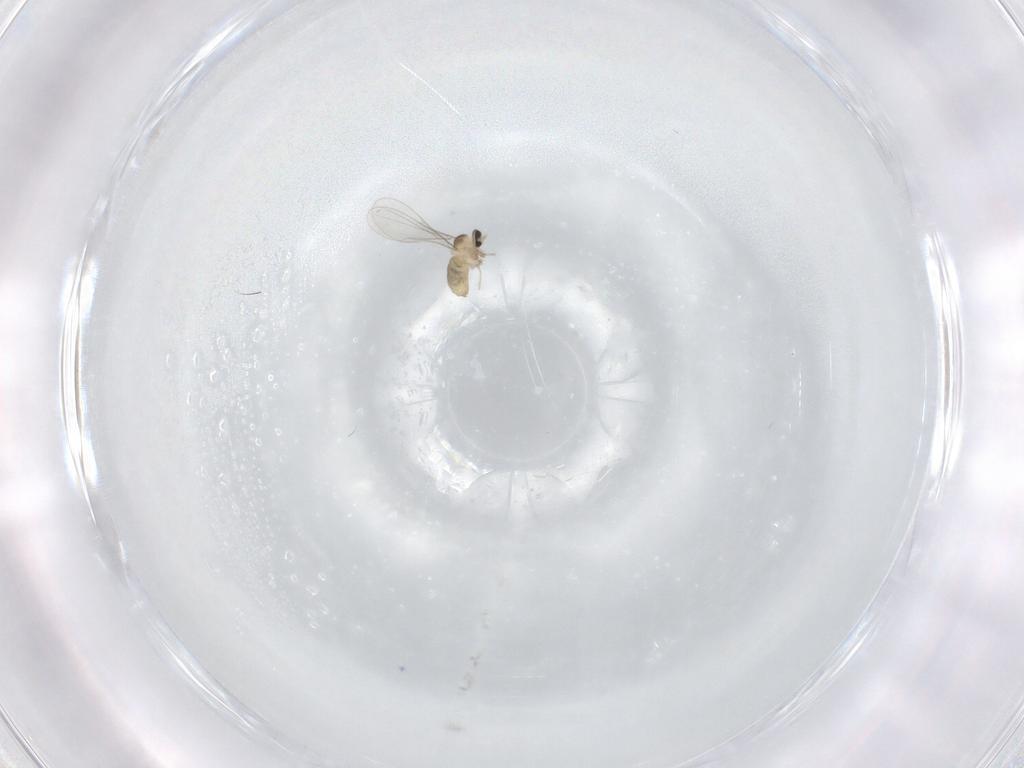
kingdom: Animalia
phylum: Arthropoda
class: Insecta
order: Diptera
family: Cecidomyiidae
